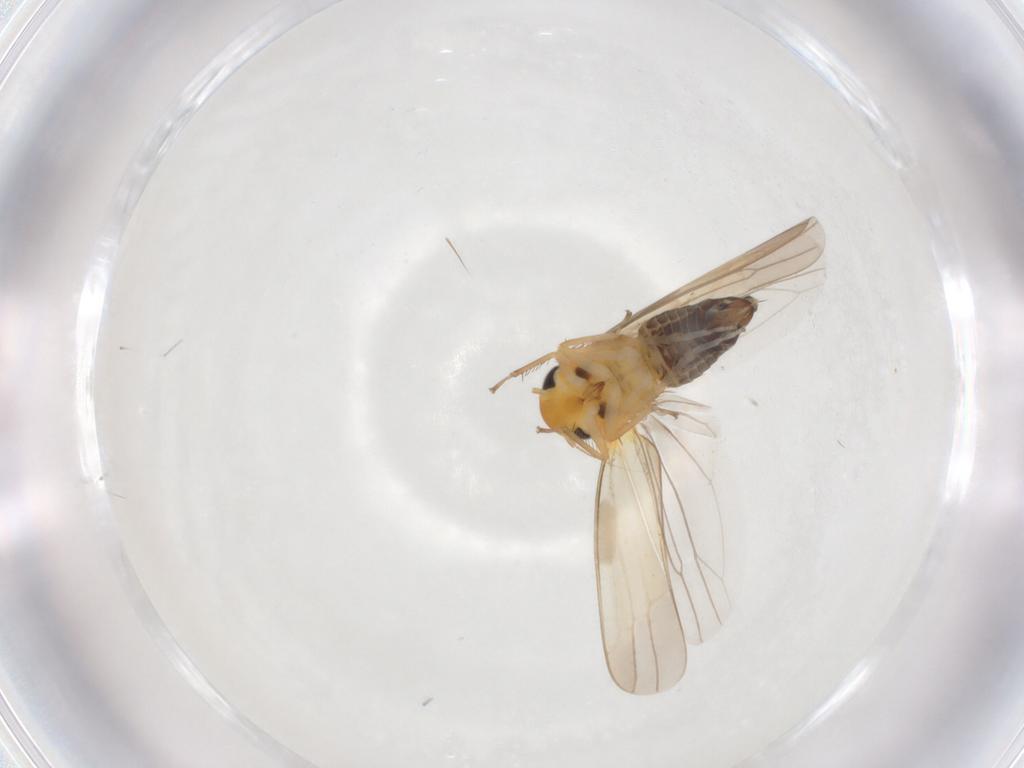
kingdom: Animalia
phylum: Arthropoda
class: Insecta
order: Hemiptera
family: Cicadellidae
